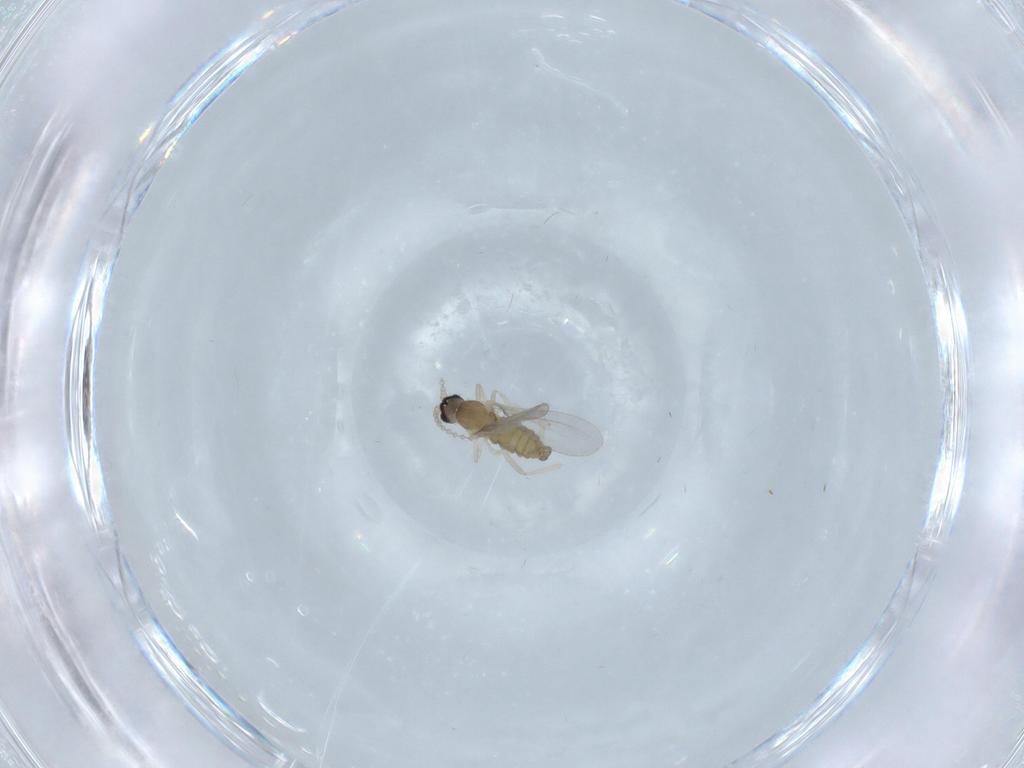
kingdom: Animalia
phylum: Arthropoda
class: Insecta
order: Diptera
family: Cecidomyiidae
